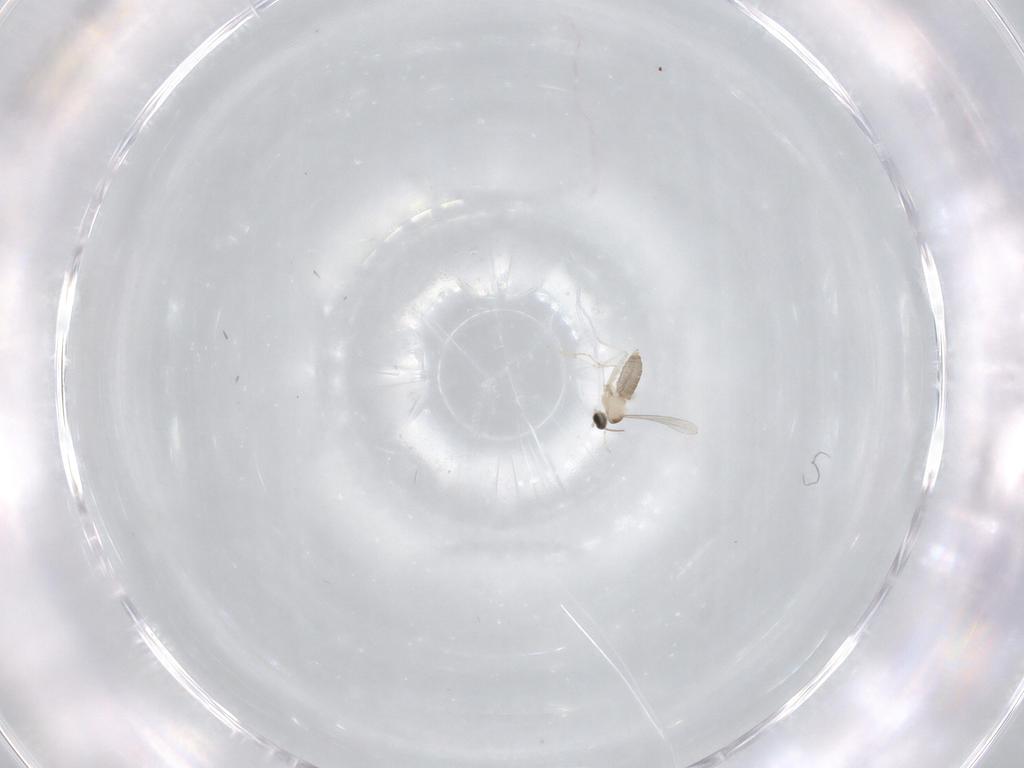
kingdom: Animalia
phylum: Arthropoda
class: Insecta
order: Diptera
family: Cecidomyiidae
